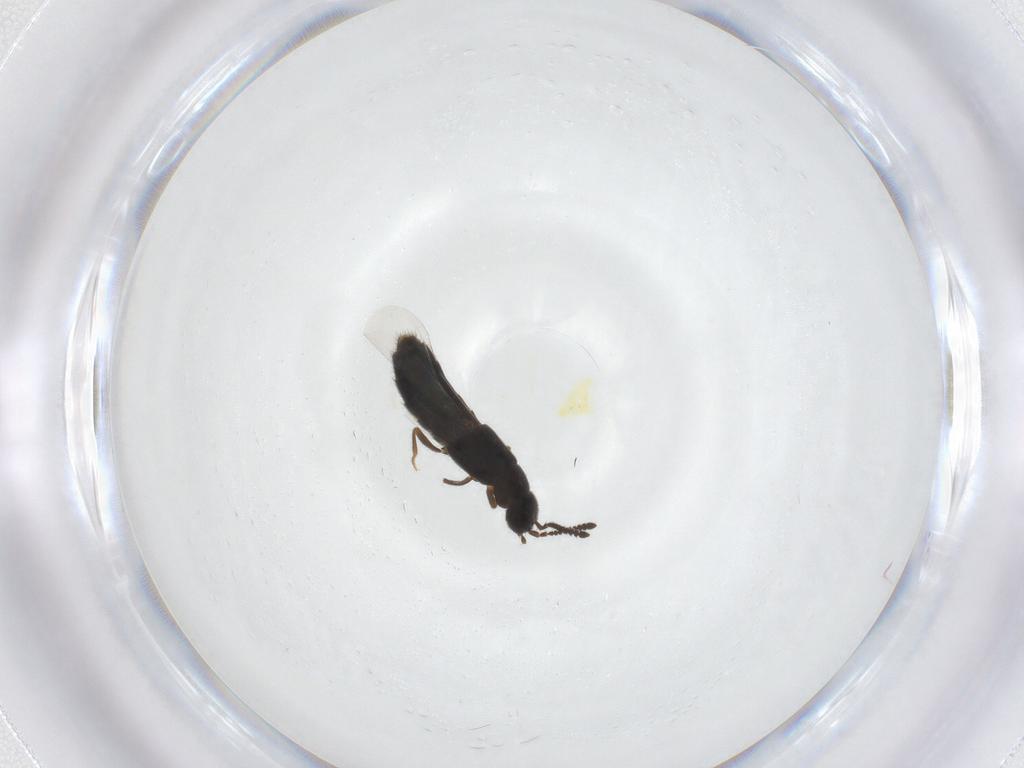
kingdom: Animalia
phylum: Arthropoda
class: Insecta
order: Coleoptera
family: Staphylinidae
